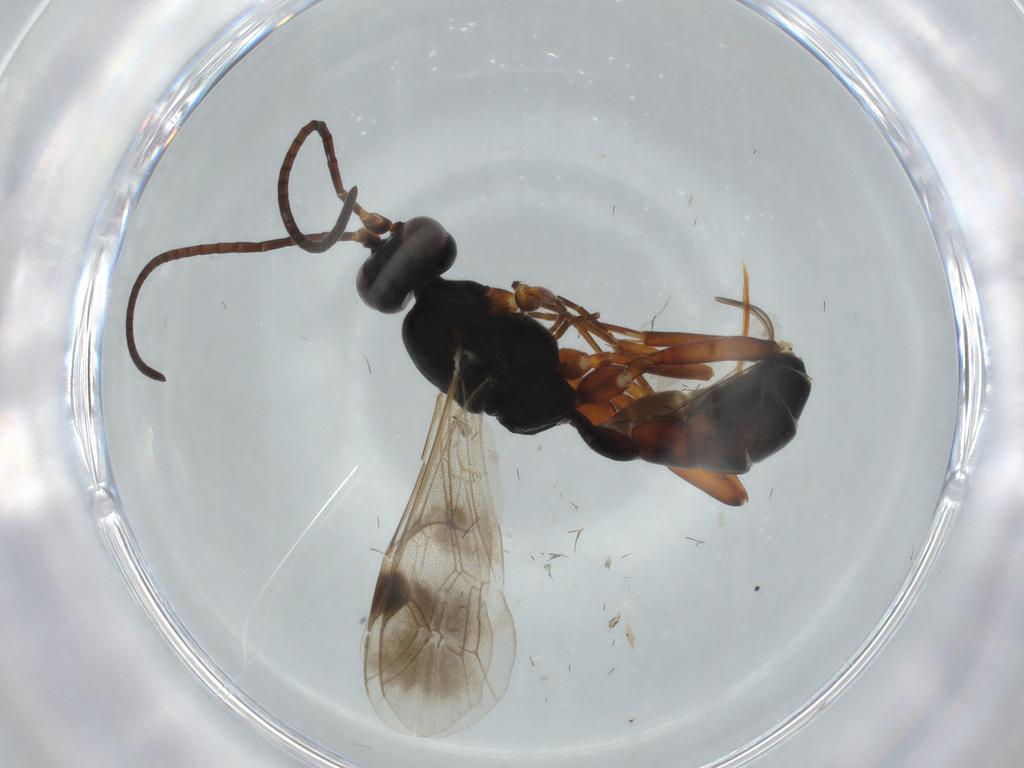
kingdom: Animalia
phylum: Arthropoda
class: Insecta
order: Hymenoptera
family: Ichneumonidae
